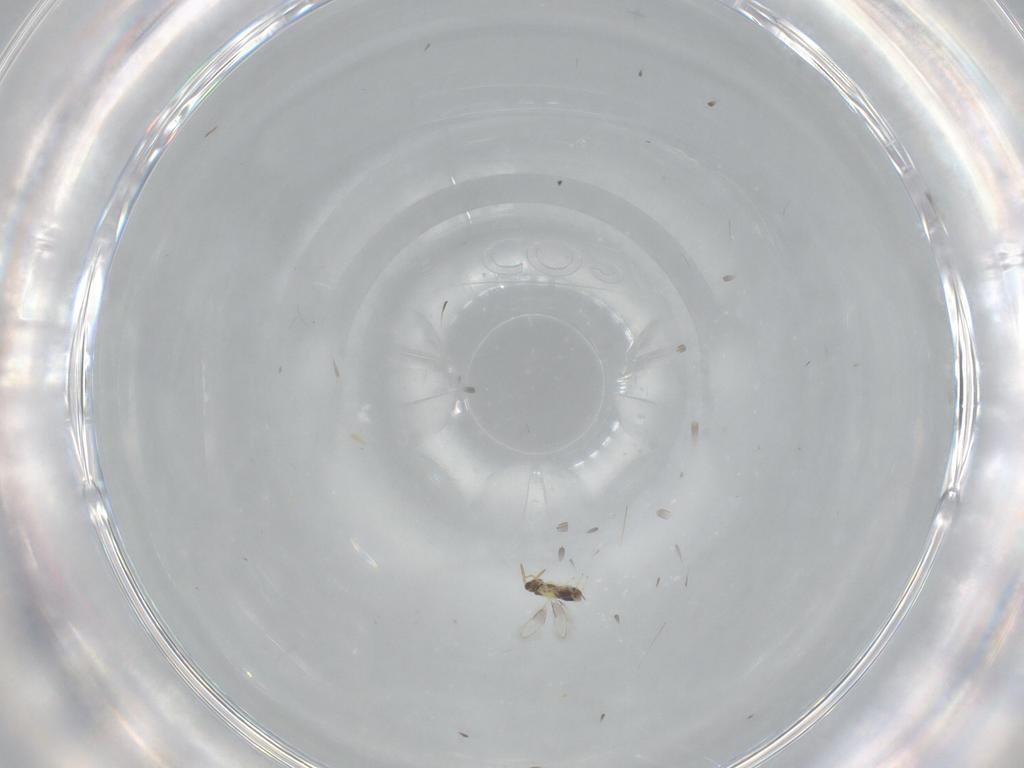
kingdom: Animalia
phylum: Arthropoda
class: Insecta
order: Hymenoptera
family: Aphelinidae
